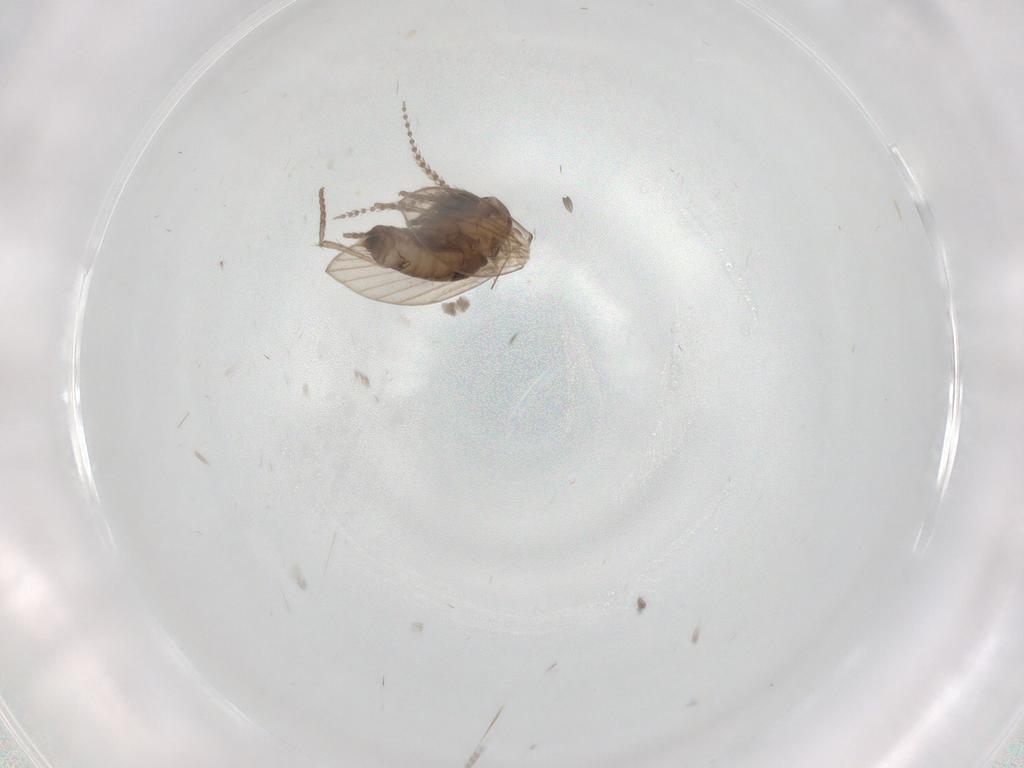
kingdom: Animalia
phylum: Arthropoda
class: Insecta
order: Diptera
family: Psychodidae
